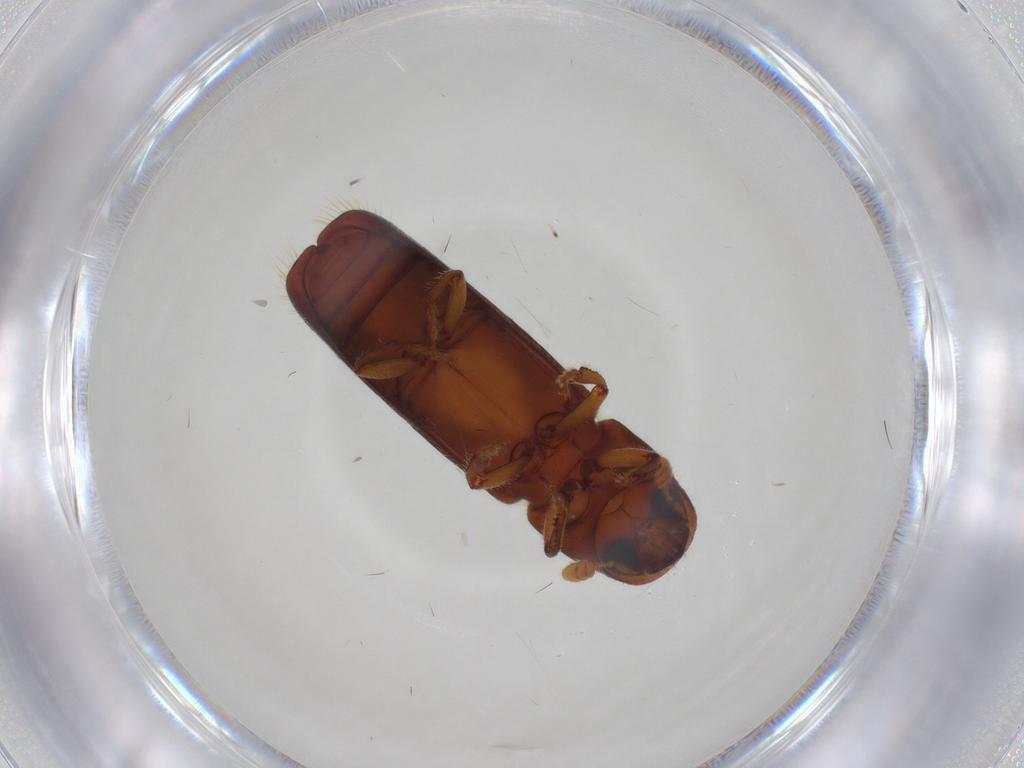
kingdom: Animalia
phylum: Arthropoda
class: Insecta
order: Coleoptera
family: Curculionidae
